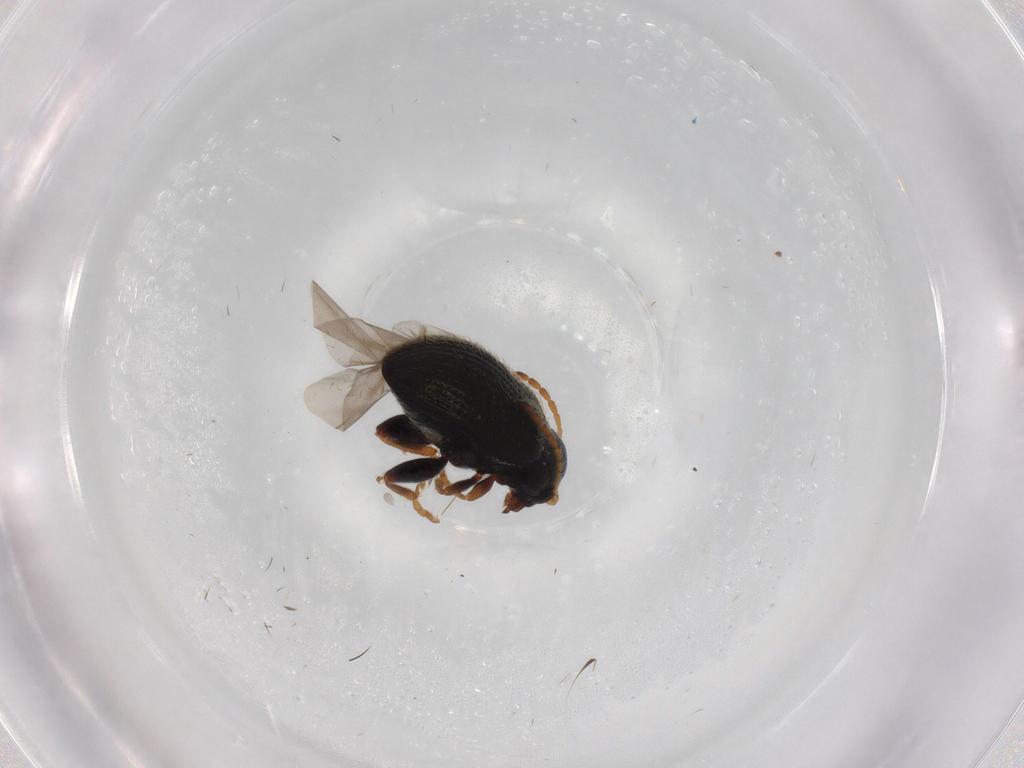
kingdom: Animalia
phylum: Arthropoda
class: Insecta
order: Coleoptera
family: Chrysomelidae
